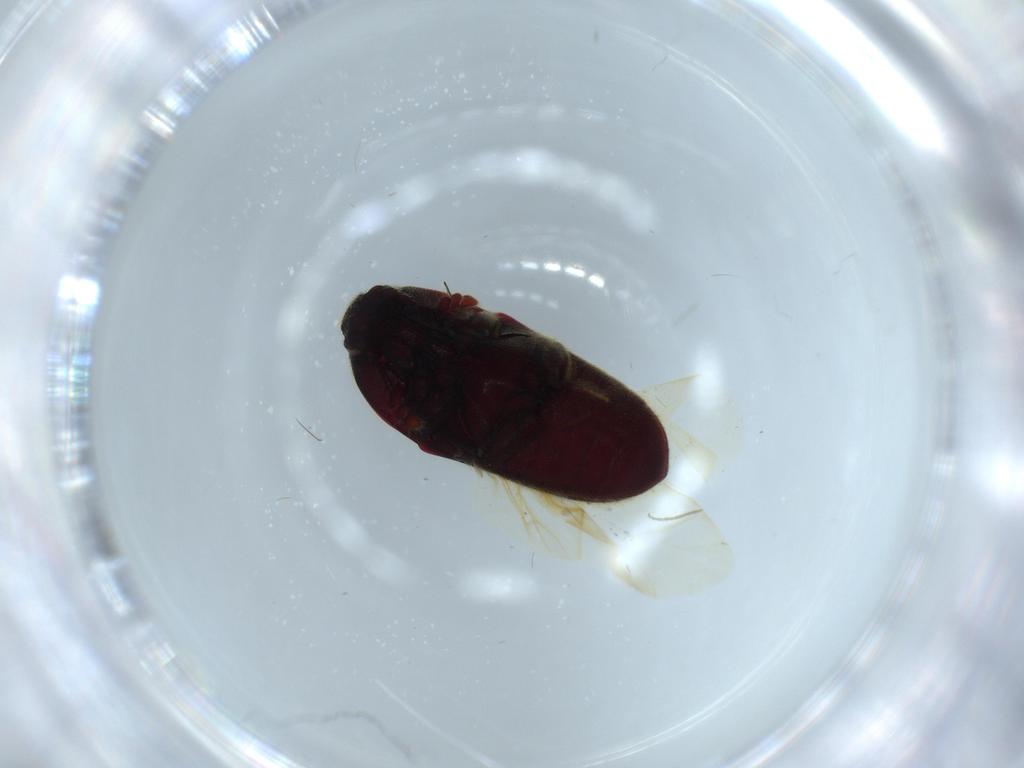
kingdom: Animalia
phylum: Arthropoda
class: Insecta
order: Coleoptera
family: Throscidae
